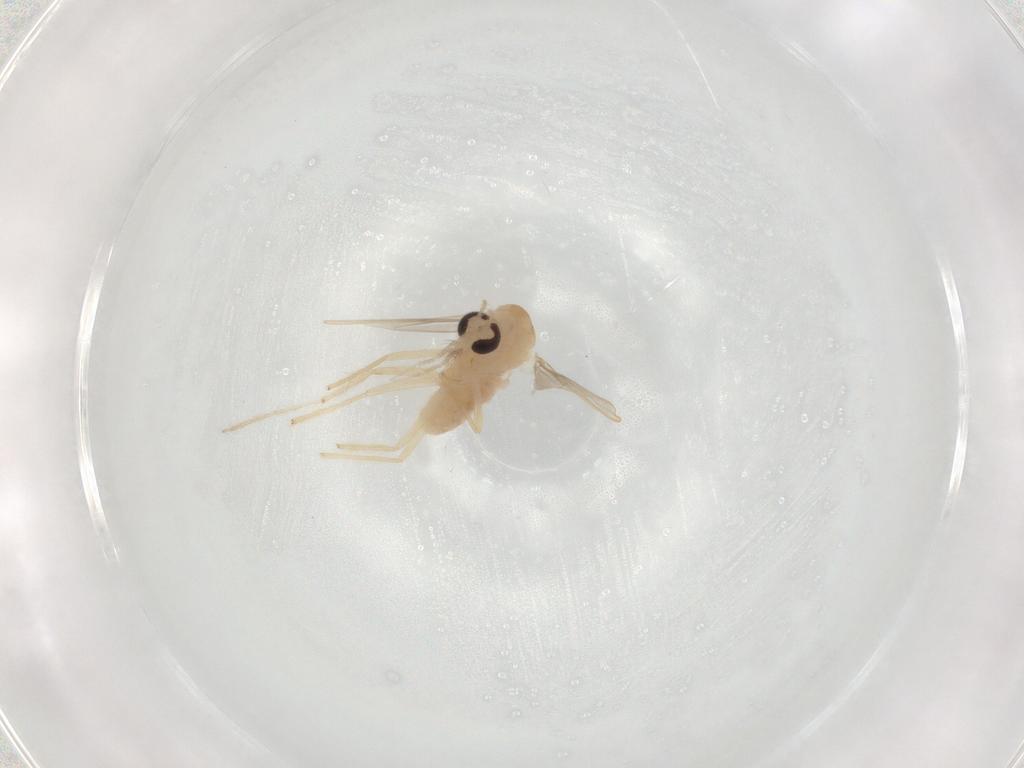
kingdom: Animalia
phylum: Arthropoda
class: Insecta
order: Diptera
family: Chironomidae
